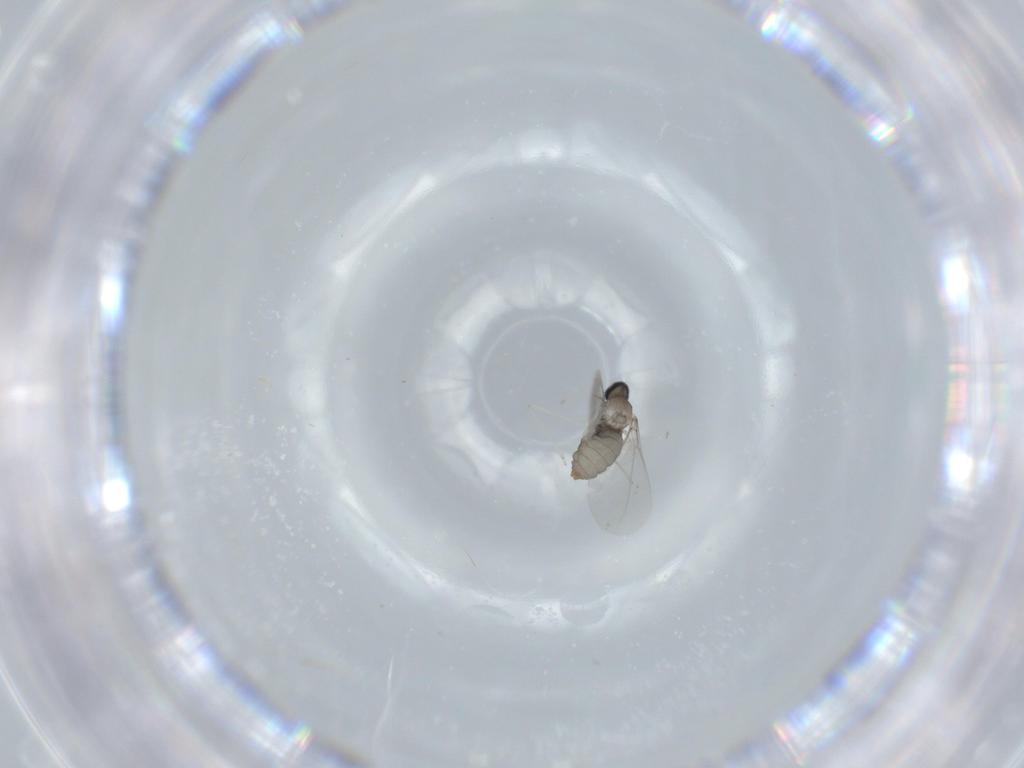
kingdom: Animalia
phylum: Arthropoda
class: Insecta
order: Diptera
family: Cecidomyiidae
